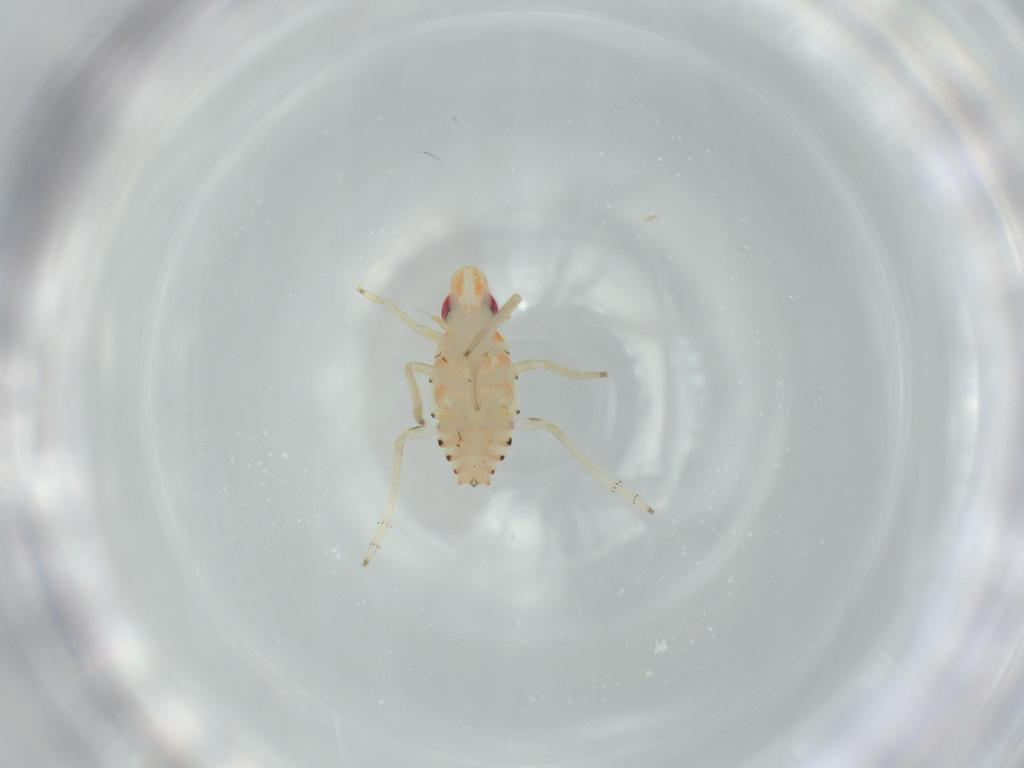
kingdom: Animalia
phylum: Arthropoda
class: Insecta
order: Hemiptera
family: Tropiduchidae
